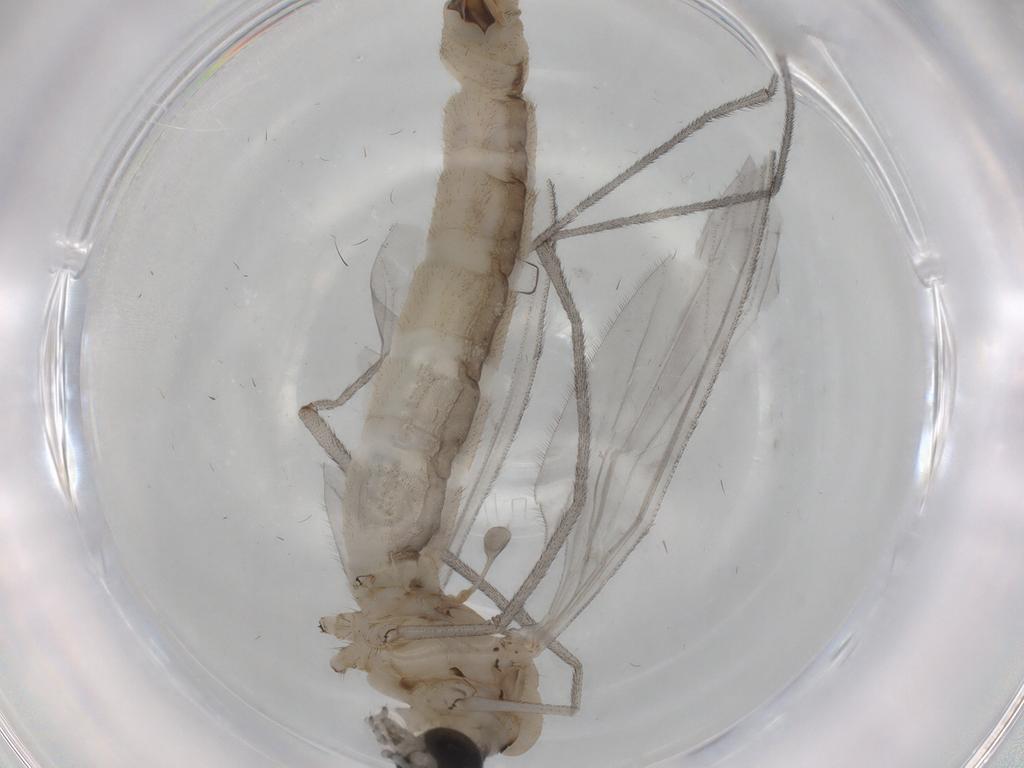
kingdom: Animalia
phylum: Arthropoda
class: Insecta
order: Diptera
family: Limoniidae
